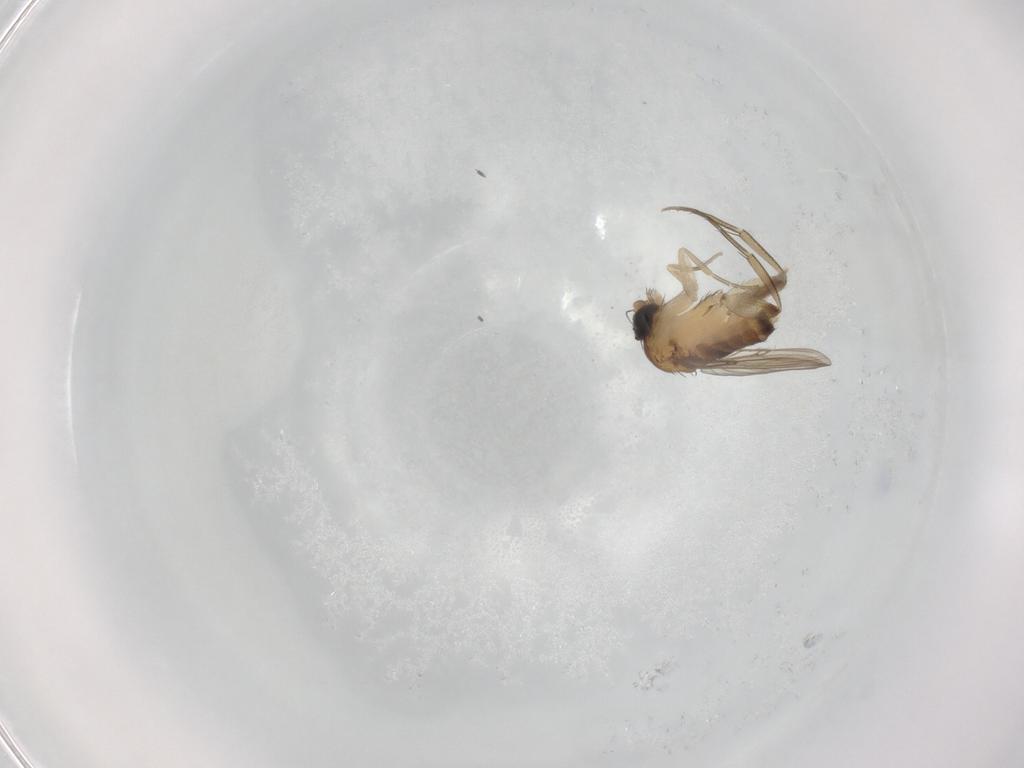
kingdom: Animalia
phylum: Arthropoda
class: Insecta
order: Diptera
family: Phoridae
